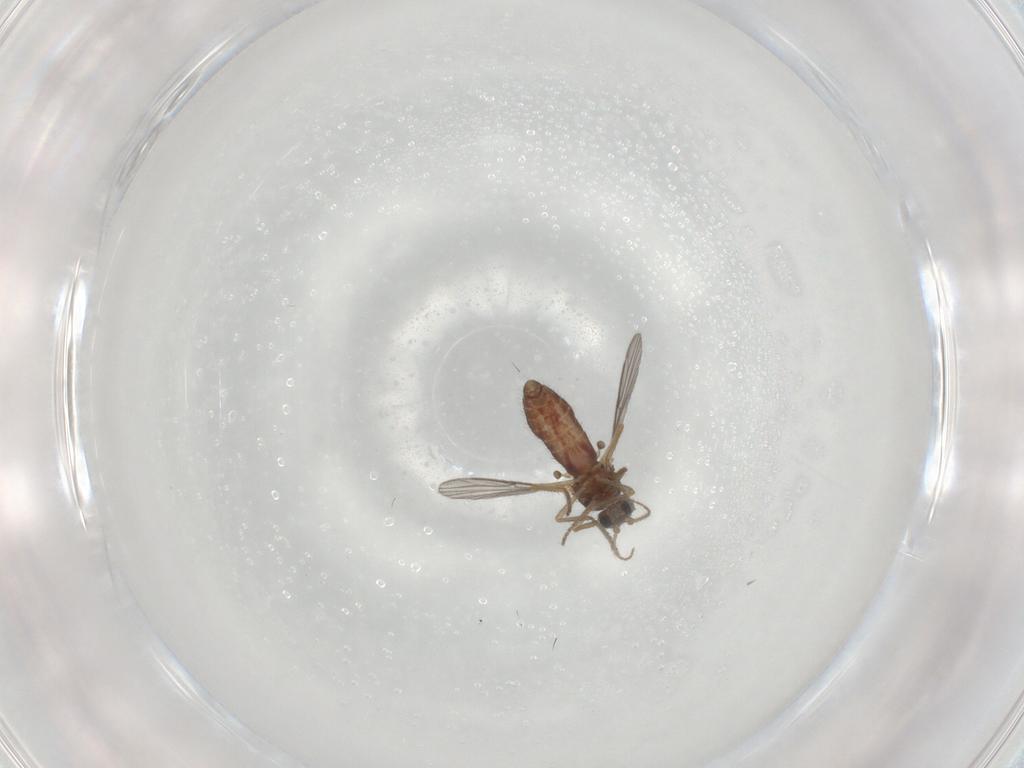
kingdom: Animalia
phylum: Arthropoda
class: Insecta
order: Diptera
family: Ceratopogonidae
